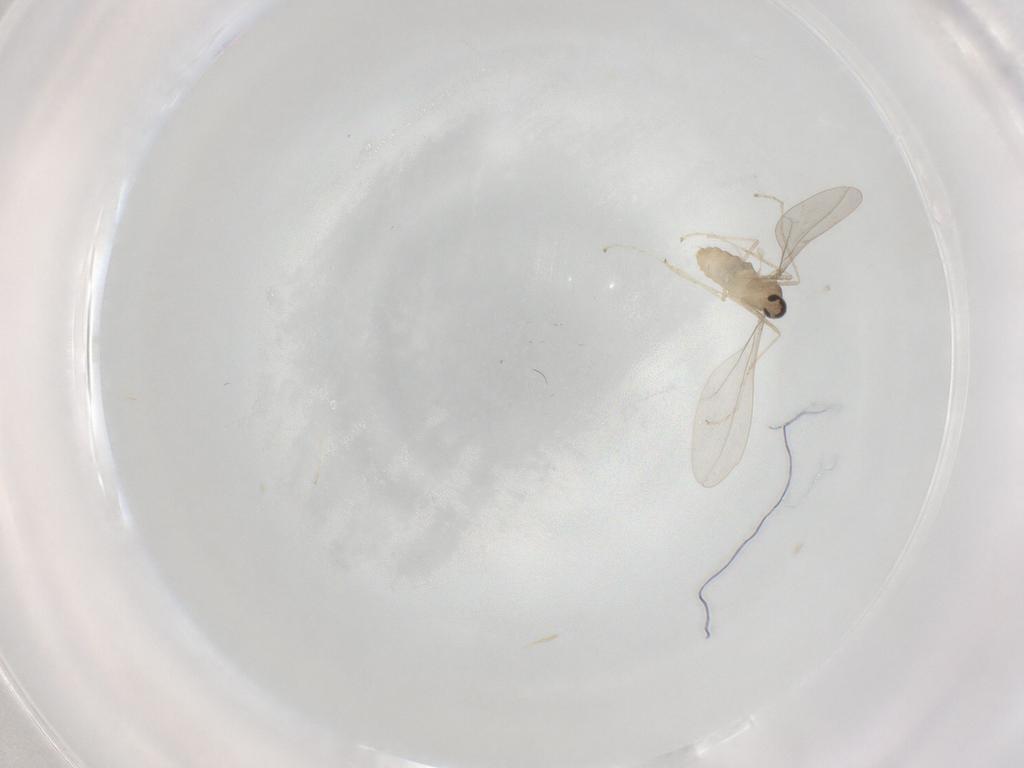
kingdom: Animalia
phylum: Arthropoda
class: Insecta
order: Diptera
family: Cecidomyiidae
